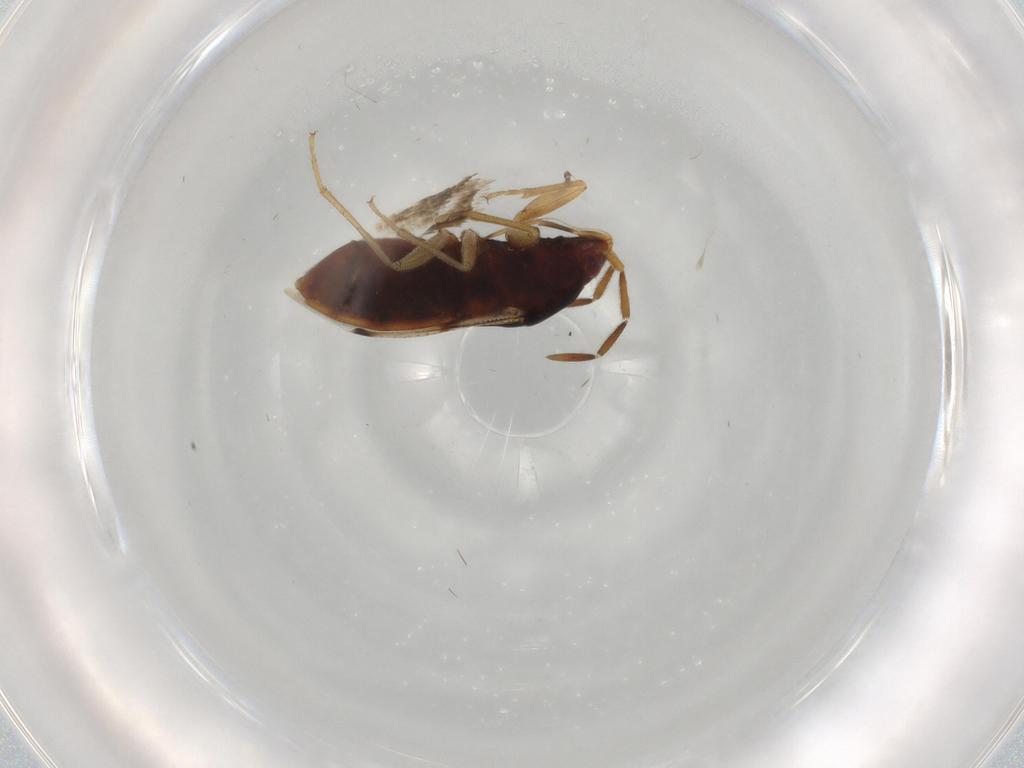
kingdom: Animalia
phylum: Arthropoda
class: Insecta
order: Hemiptera
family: Rhyparochromidae
